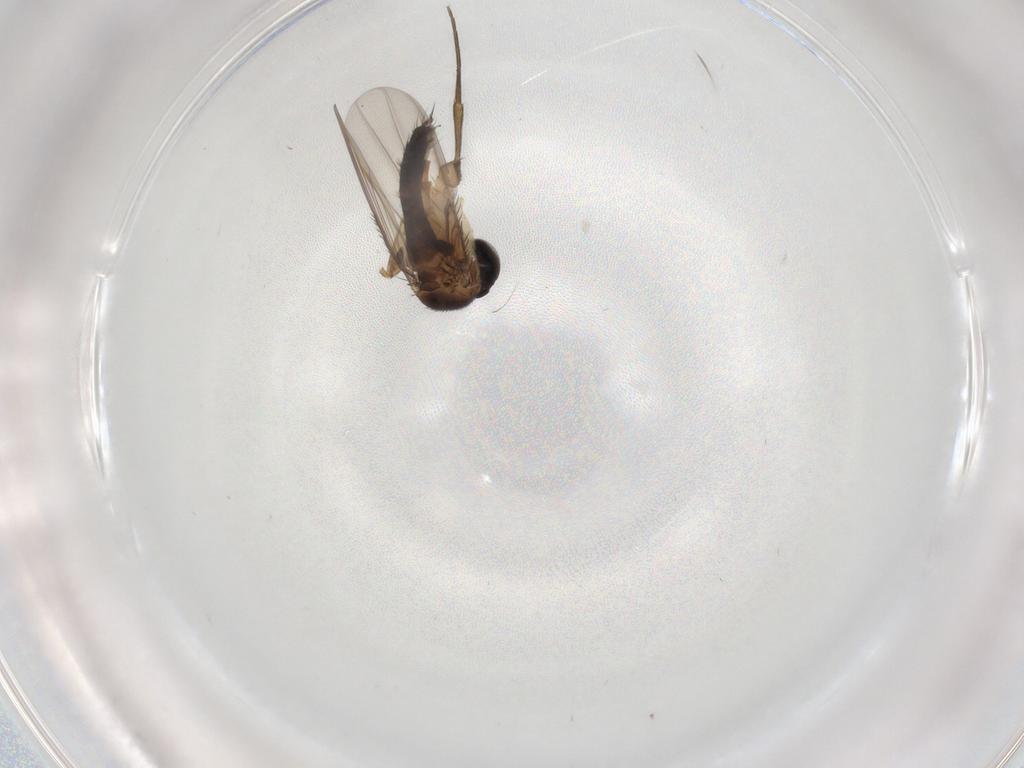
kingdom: Animalia
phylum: Arthropoda
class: Insecta
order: Diptera
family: Phoridae
